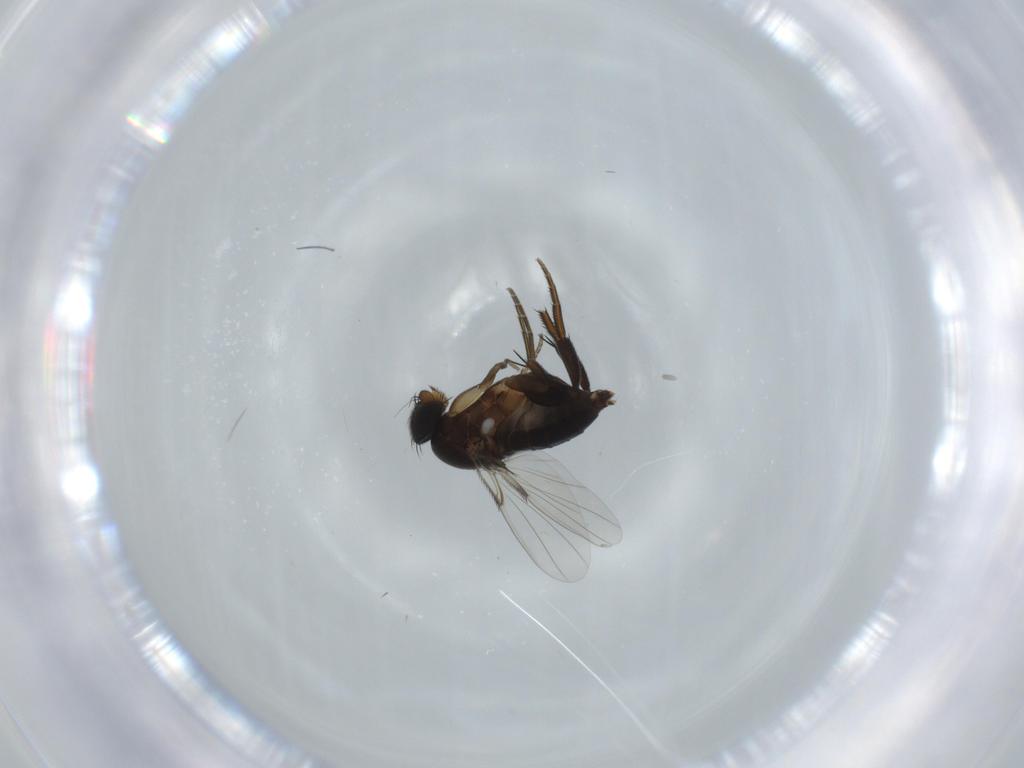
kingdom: Animalia
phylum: Arthropoda
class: Insecta
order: Diptera
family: Phoridae
